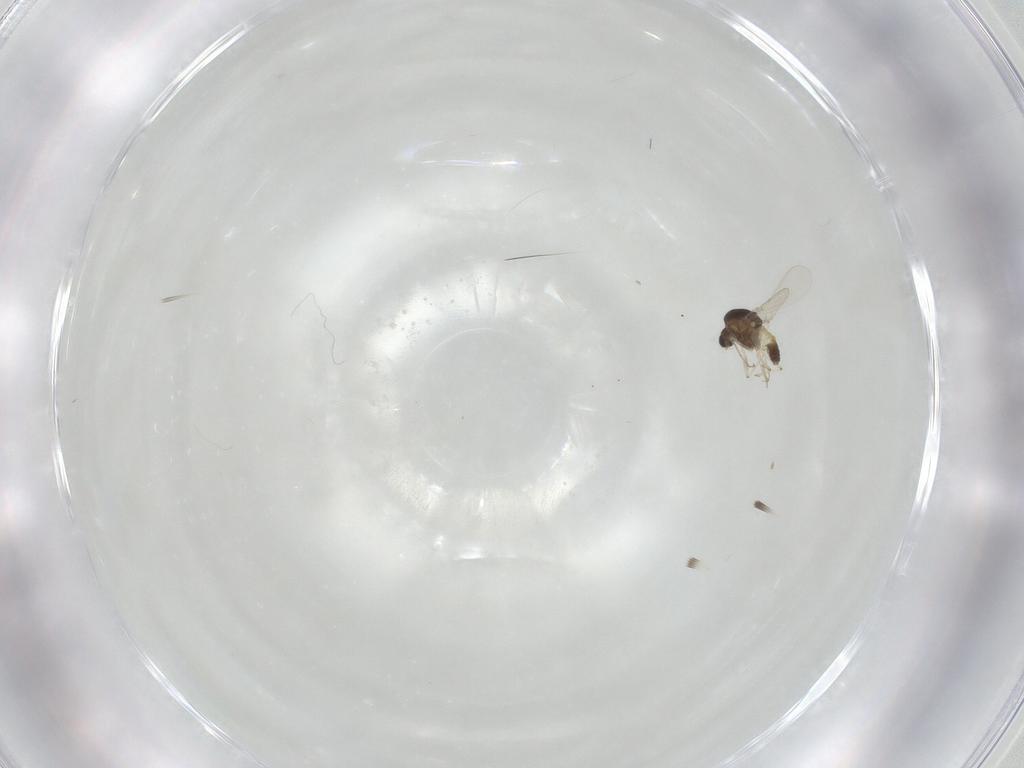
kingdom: Animalia
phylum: Arthropoda
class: Insecta
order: Diptera
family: Chironomidae
